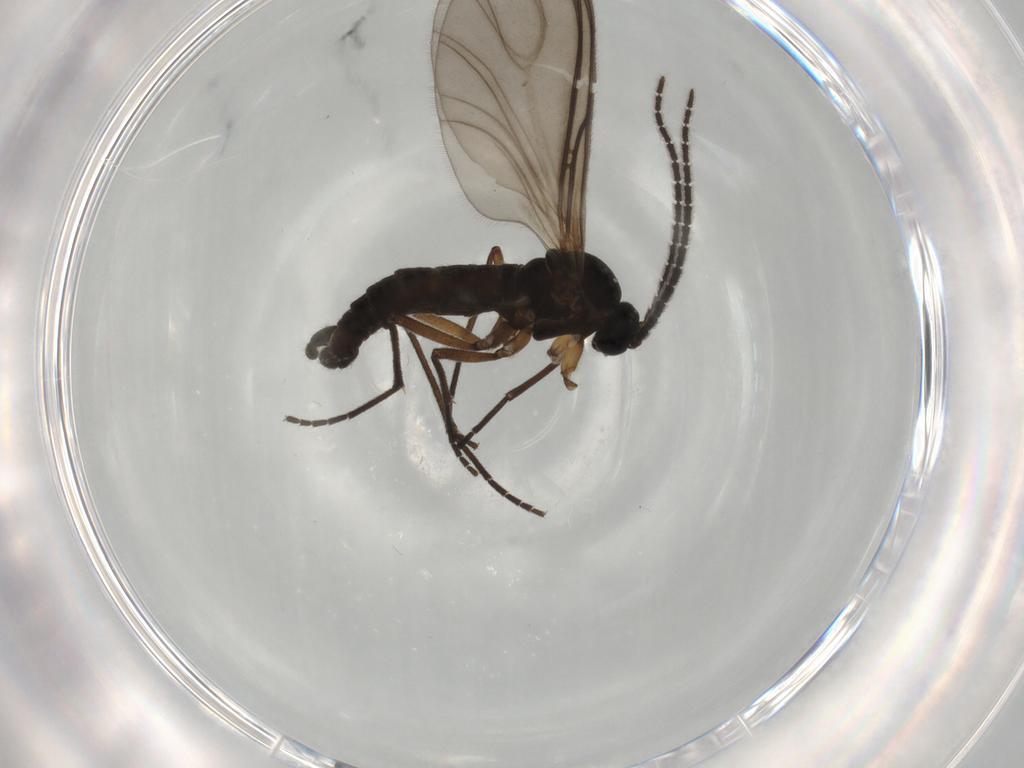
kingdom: Animalia
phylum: Arthropoda
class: Insecta
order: Diptera
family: Sciaridae
